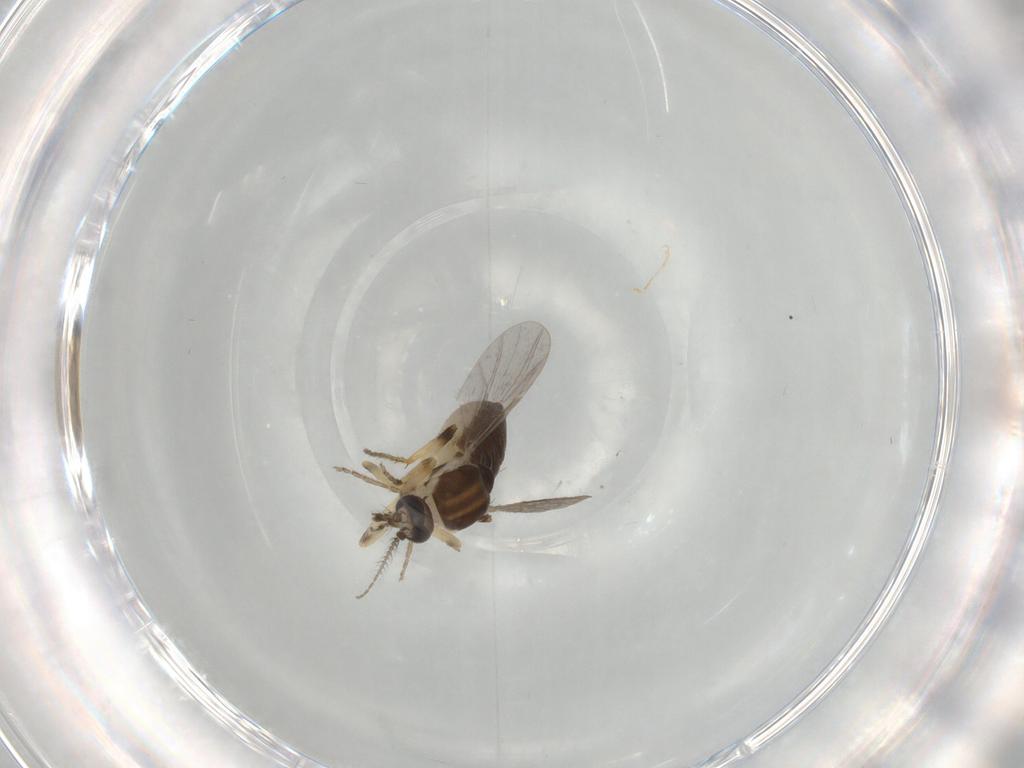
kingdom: Animalia
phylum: Arthropoda
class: Insecta
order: Diptera
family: Ceratopogonidae
